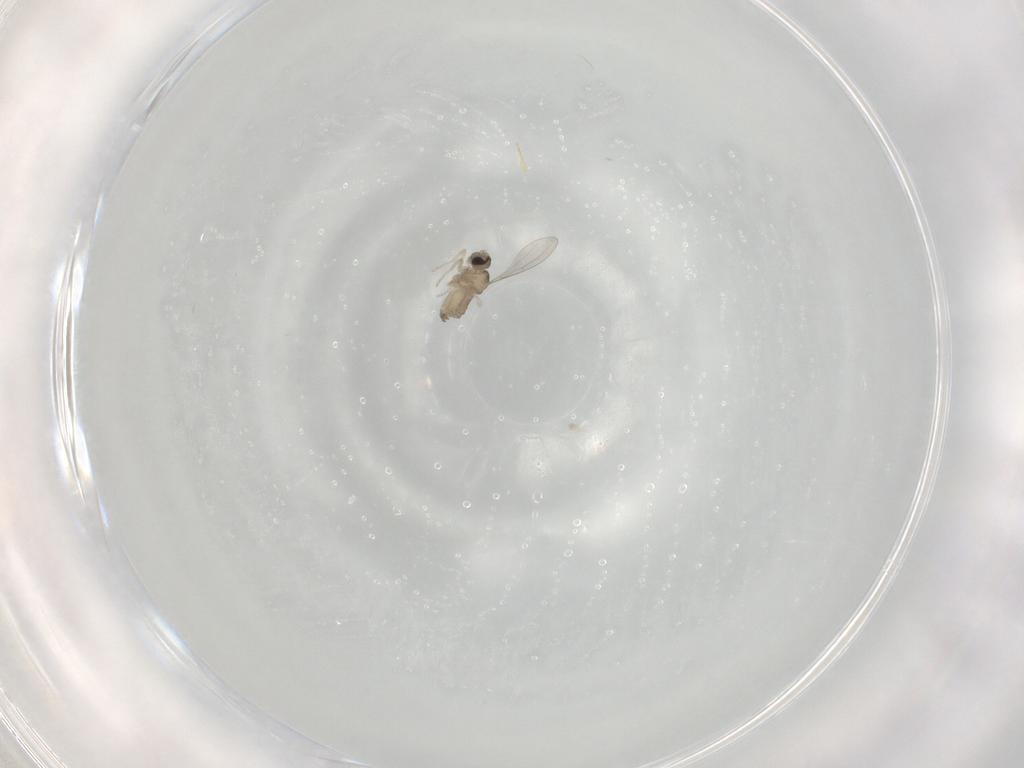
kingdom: Animalia
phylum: Arthropoda
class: Insecta
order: Diptera
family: Cecidomyiidae
